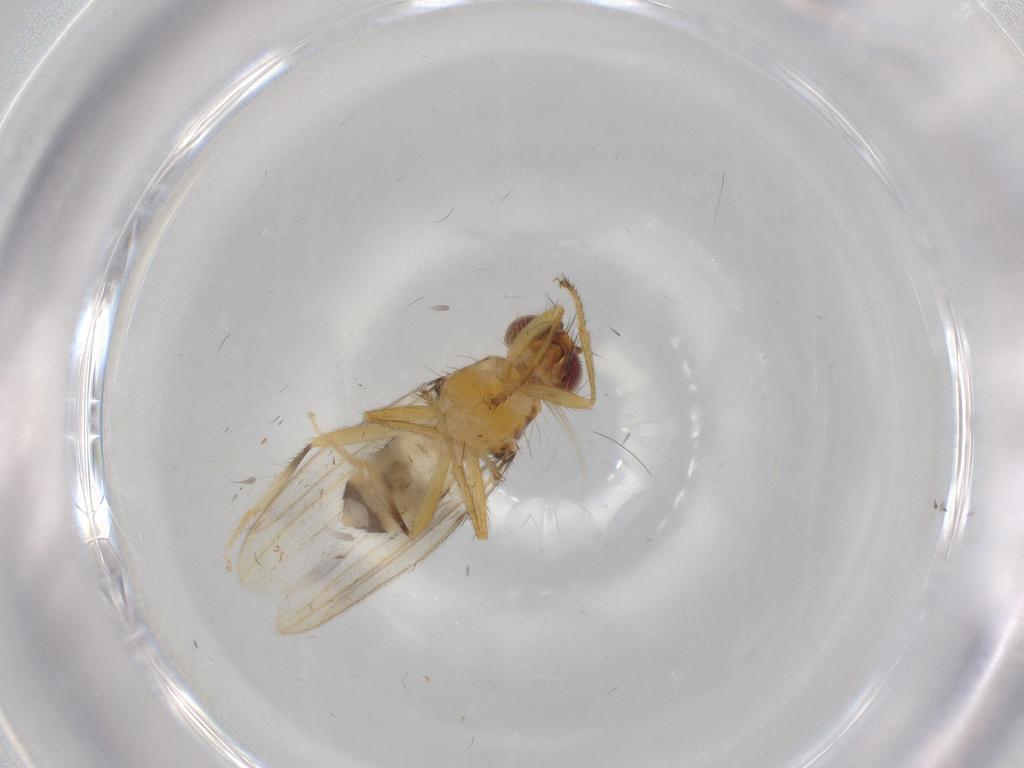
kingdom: Animalia
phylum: Arthropoda
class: Insecta
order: Diptera
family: Periscelididae
